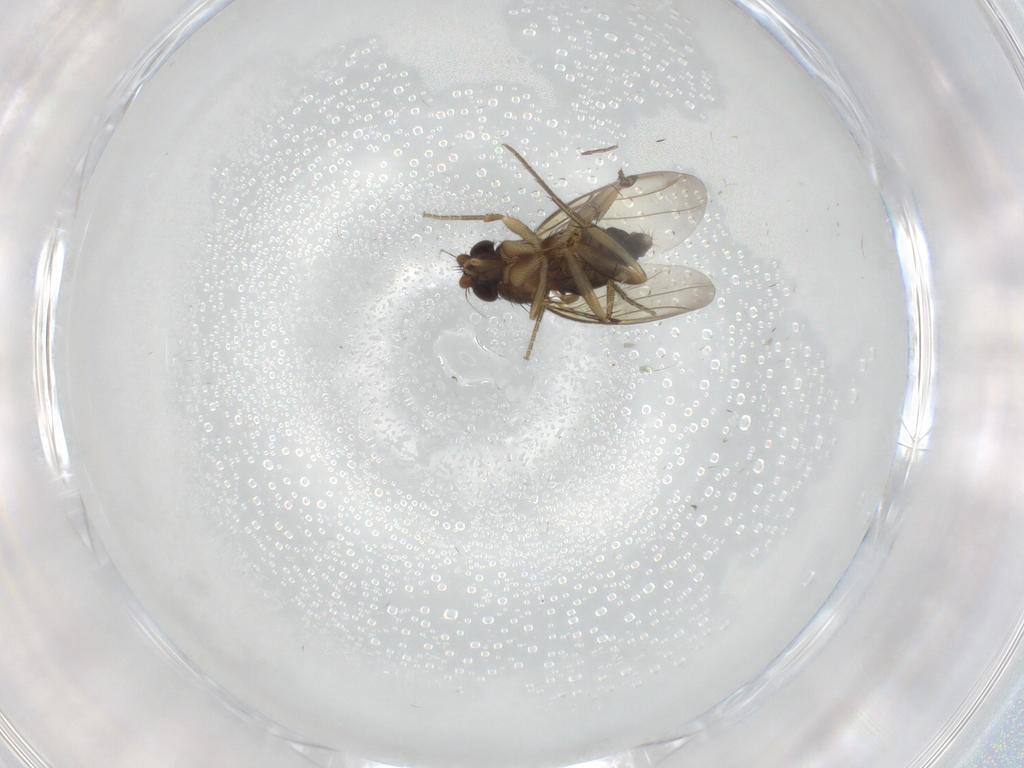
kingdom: Animalia
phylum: Arthropoda
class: Insecta
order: Diptera
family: Phoridae
